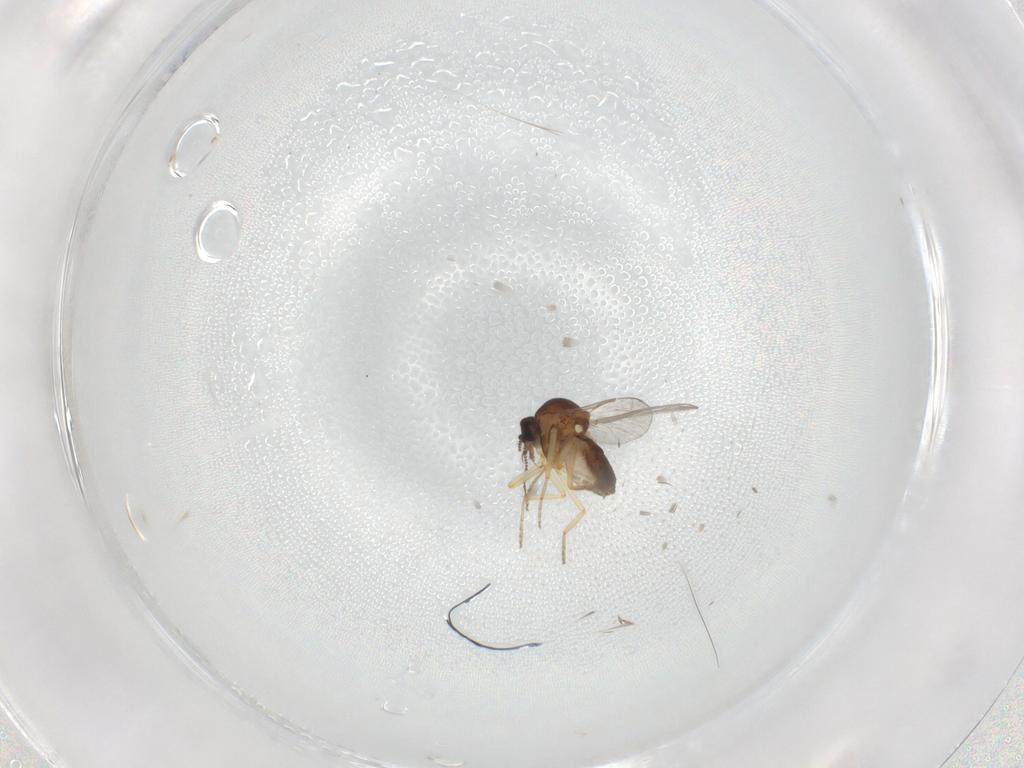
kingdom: Animalia
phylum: Arthropoda
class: Insecta
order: Diptera
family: Ceratopogonidae
